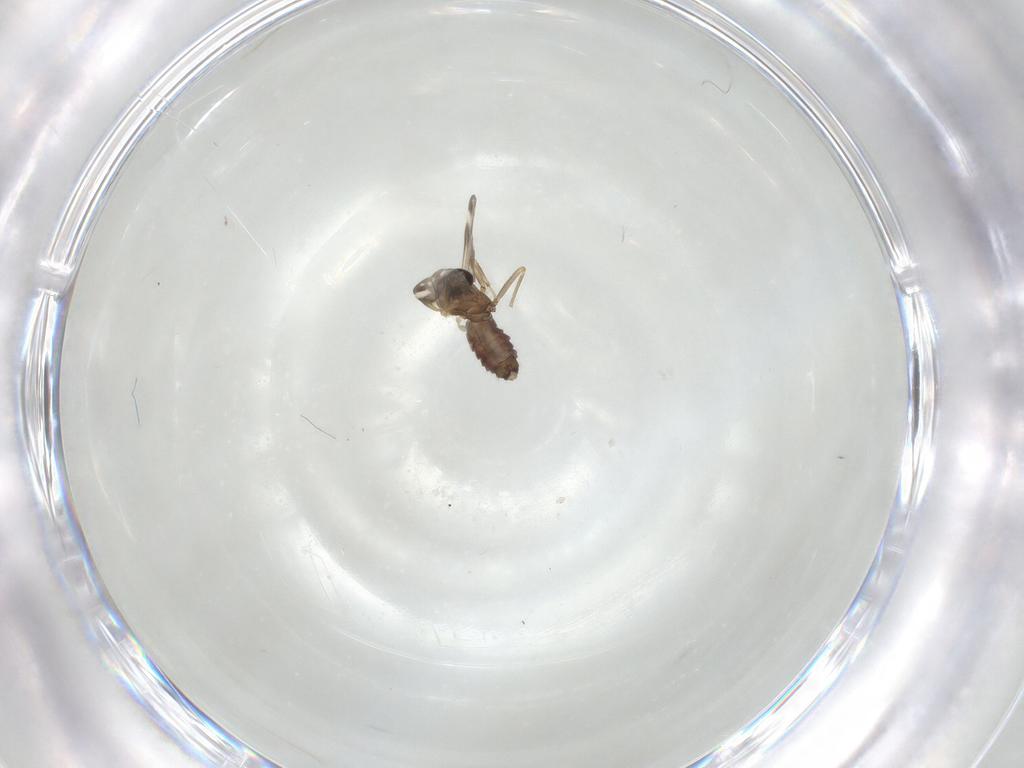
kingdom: Animalia
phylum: Arthropoda
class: Insecta
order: Diptera
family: Ceratopogonidae
